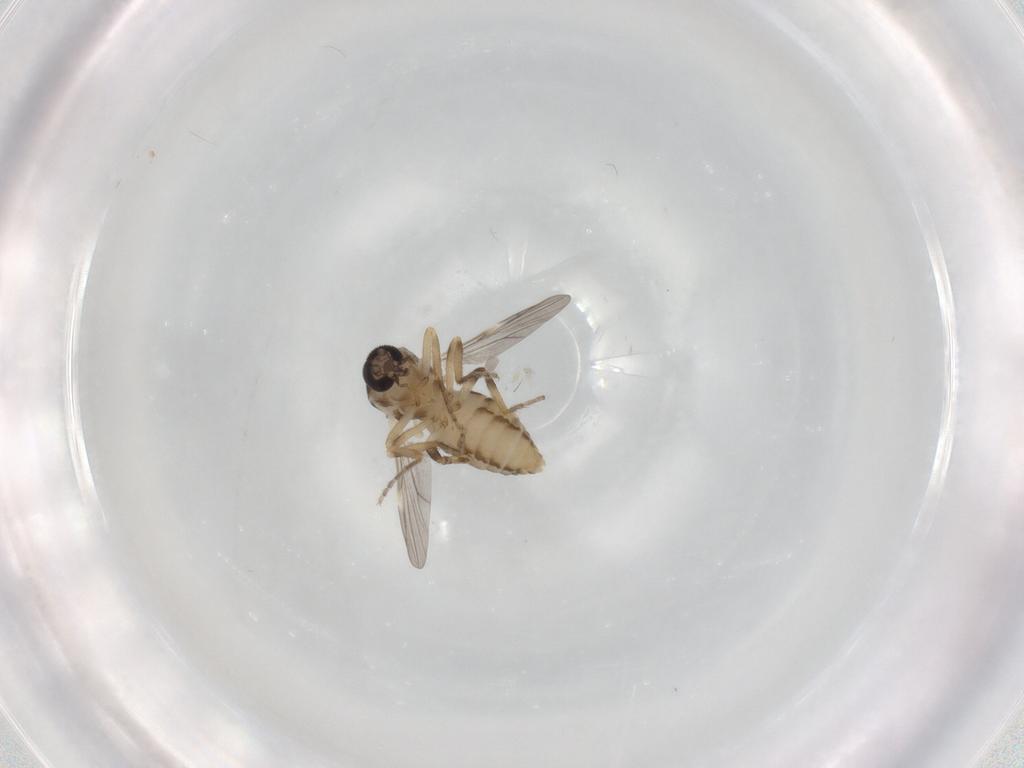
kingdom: Animalia
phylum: Arthropoda
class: Insecta
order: Diptera
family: Ceratopogonidae
